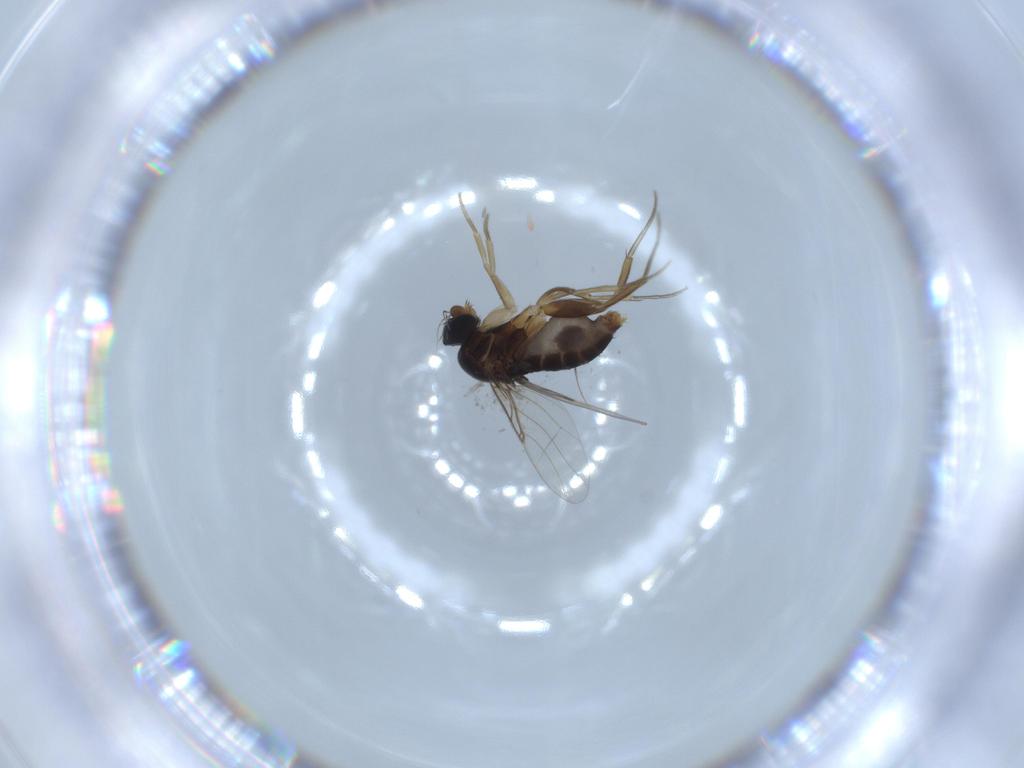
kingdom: Animalia
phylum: Arthropoda
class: Insecta
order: Diptera
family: Phoridae
